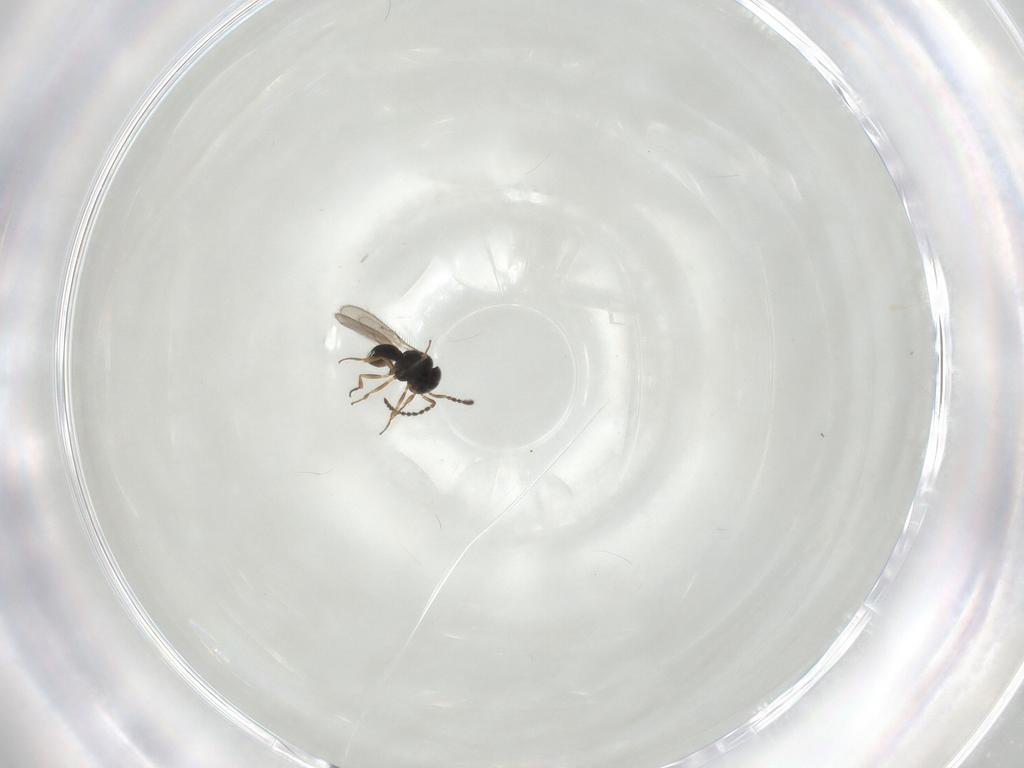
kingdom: Animalia
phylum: Arthropoda
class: Insecta
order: Hymenoptera
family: Scelionidae
